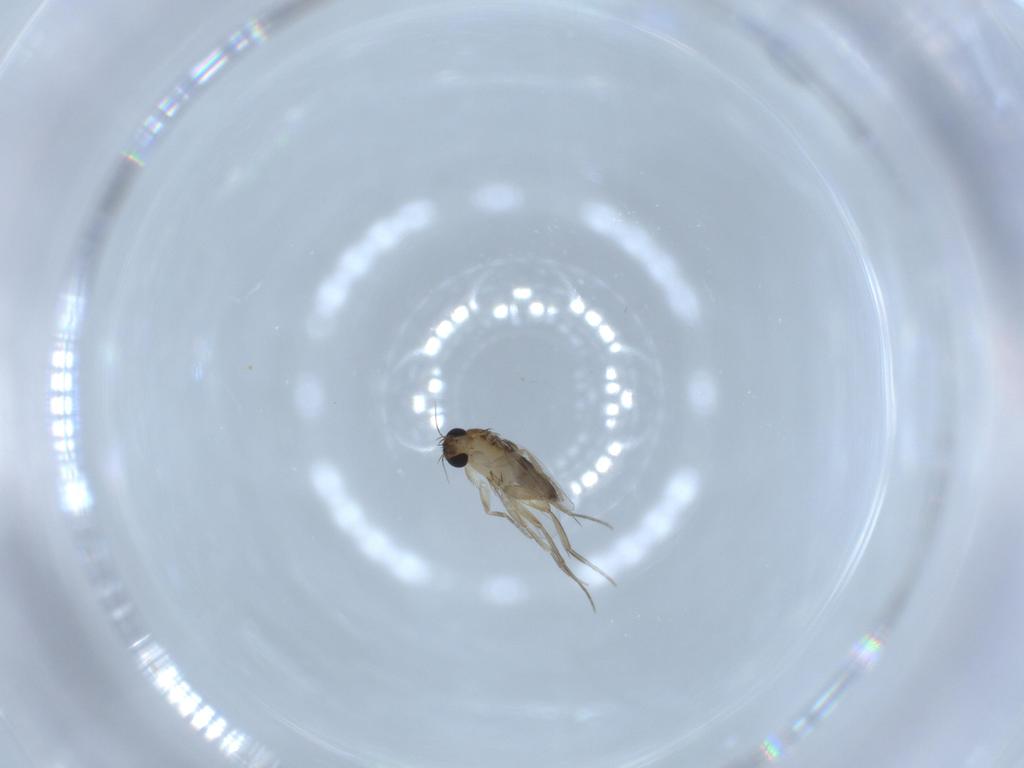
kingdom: Animalia
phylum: Arthropoda
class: Insecta
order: Diptera
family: Phoridae
